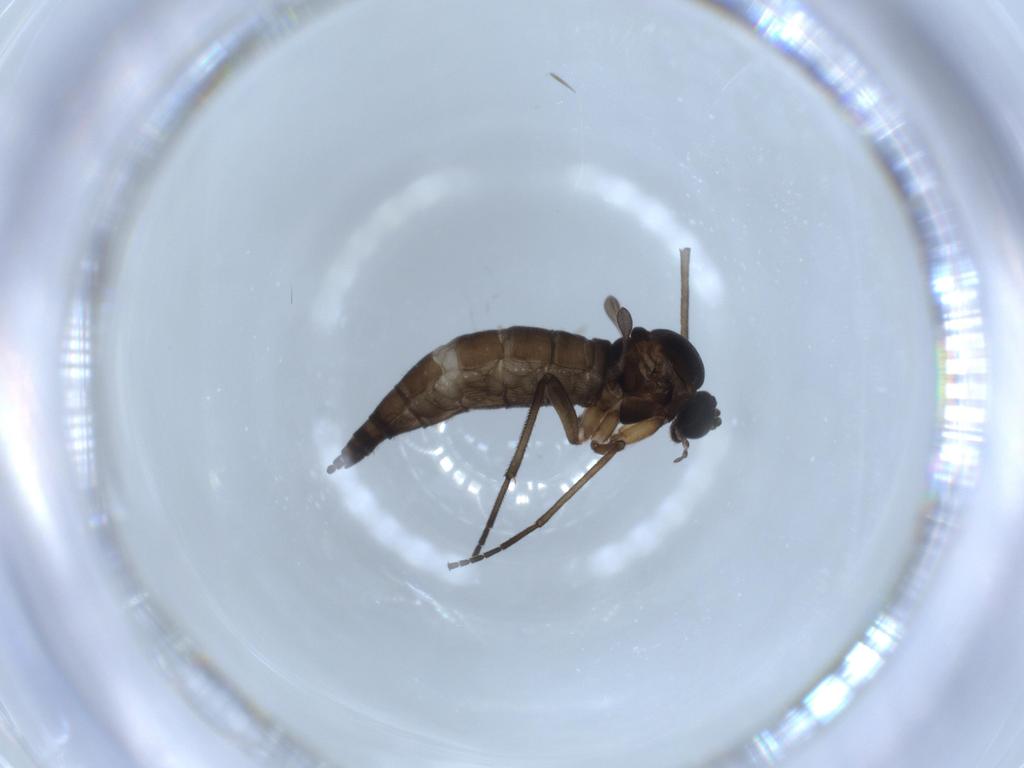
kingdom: Animalia
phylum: Arthropoda
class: Insecta
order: Diptera
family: Sciaridae
